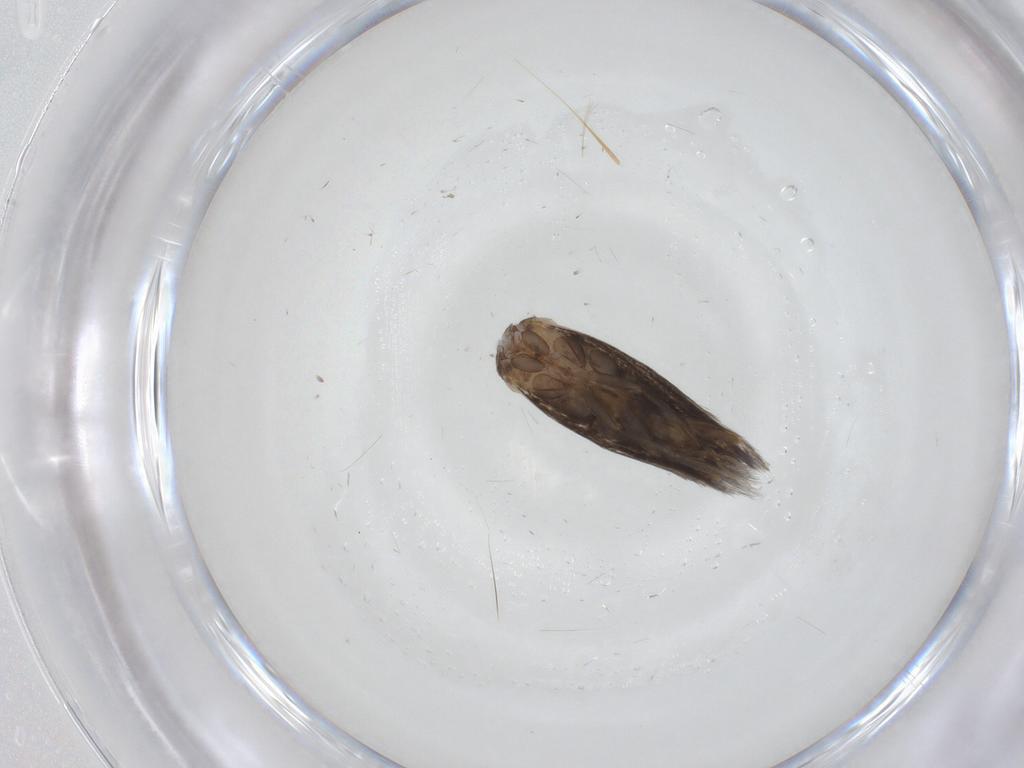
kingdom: Animalia
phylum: Arthropoda
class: Insecta
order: Lepidoptera
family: Elachistidae
